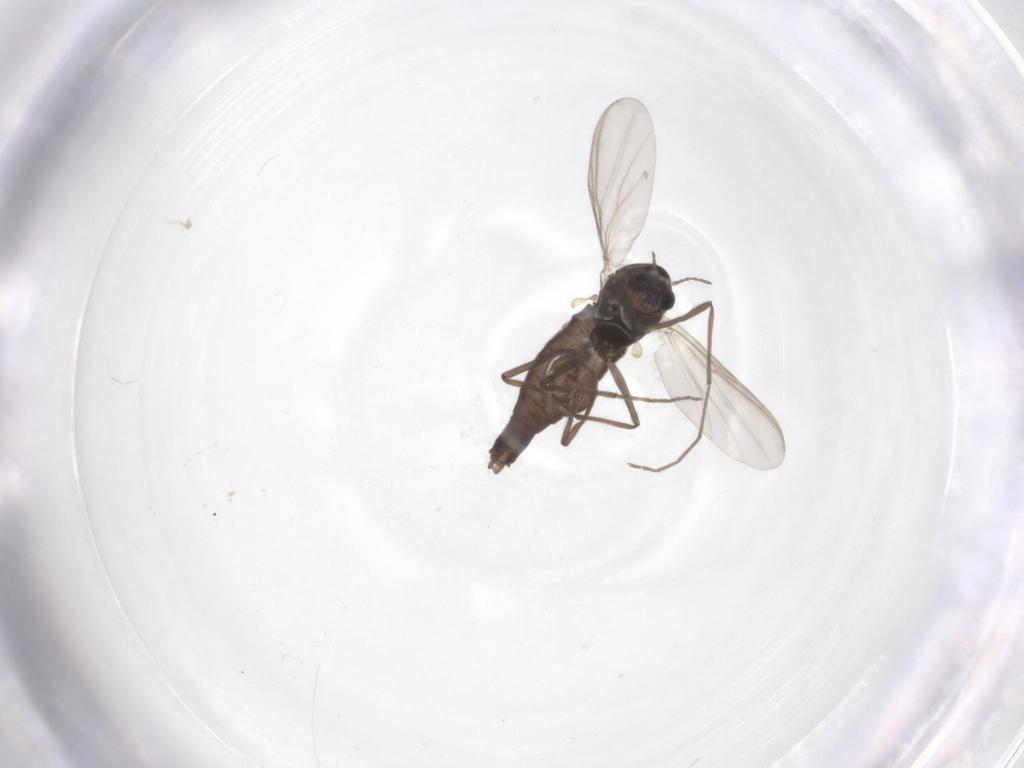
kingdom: Animalia
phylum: Arthropoda
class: Insecta
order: Diptera
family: Chironomidae
